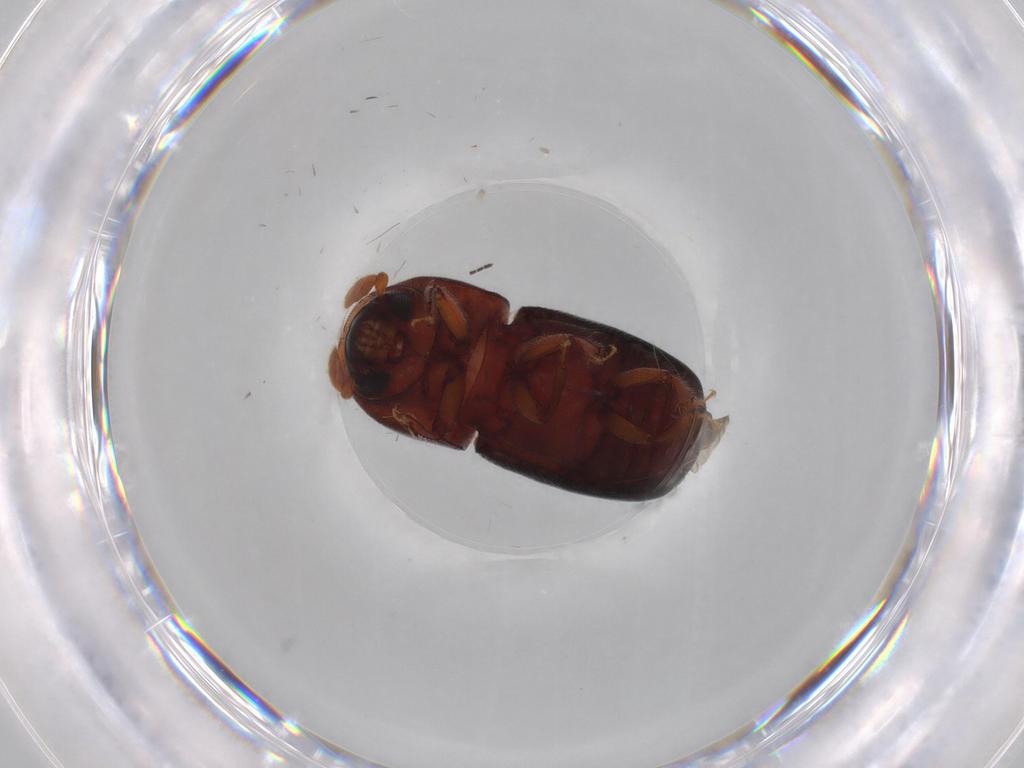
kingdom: Animalia
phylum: Arthropoda
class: Insecta
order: Coleoptera
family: Curculionidae
